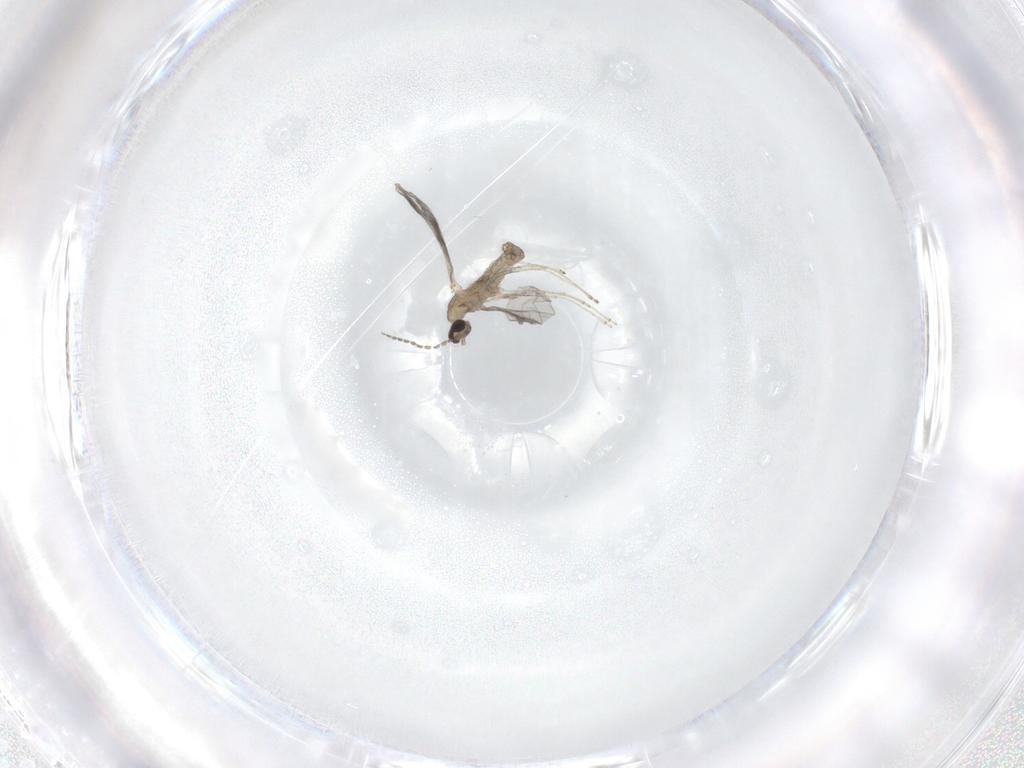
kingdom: Animalia
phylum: Arthropoda
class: Insecta
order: Diptera
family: Cecidomyiidae
